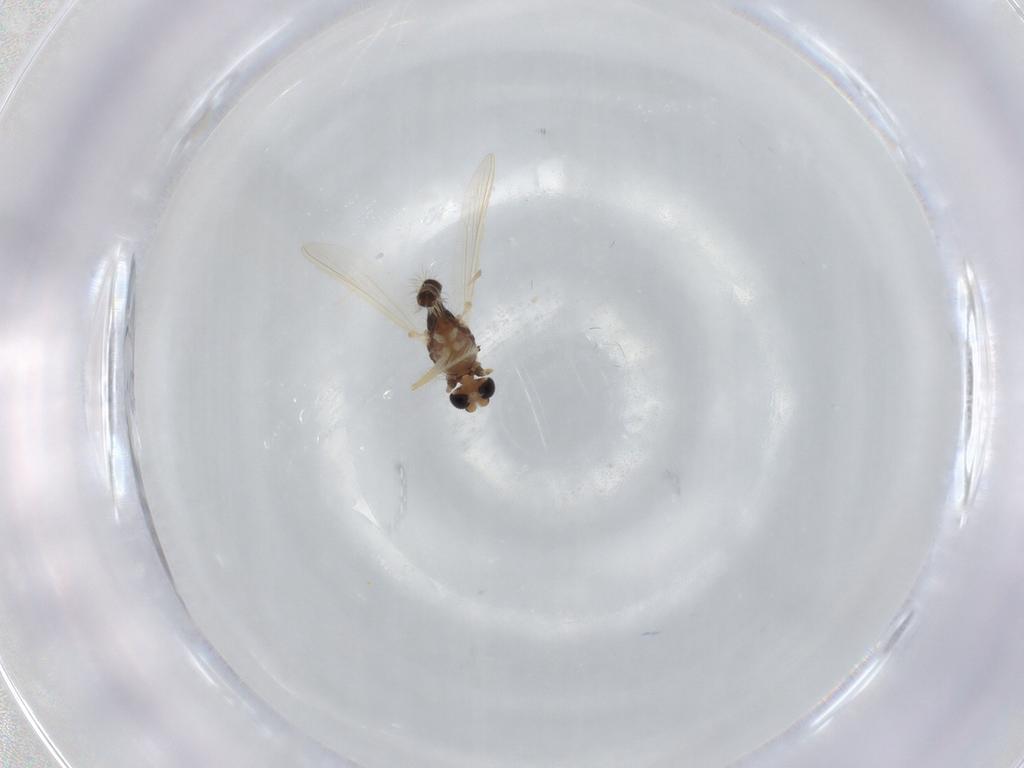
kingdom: Animalia
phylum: Arthropoda
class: Insecta
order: Diptera
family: Chironomidae
